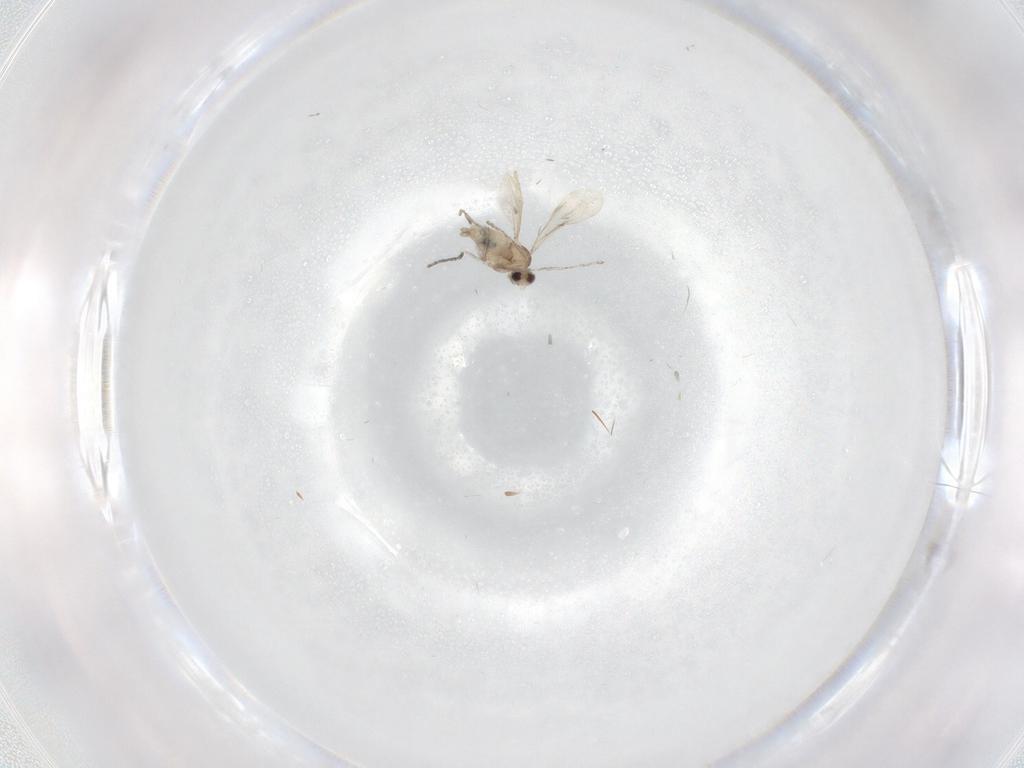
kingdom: Animalia
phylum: Arthropoda
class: Insecta
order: Diptera
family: Cecidomyiidae
